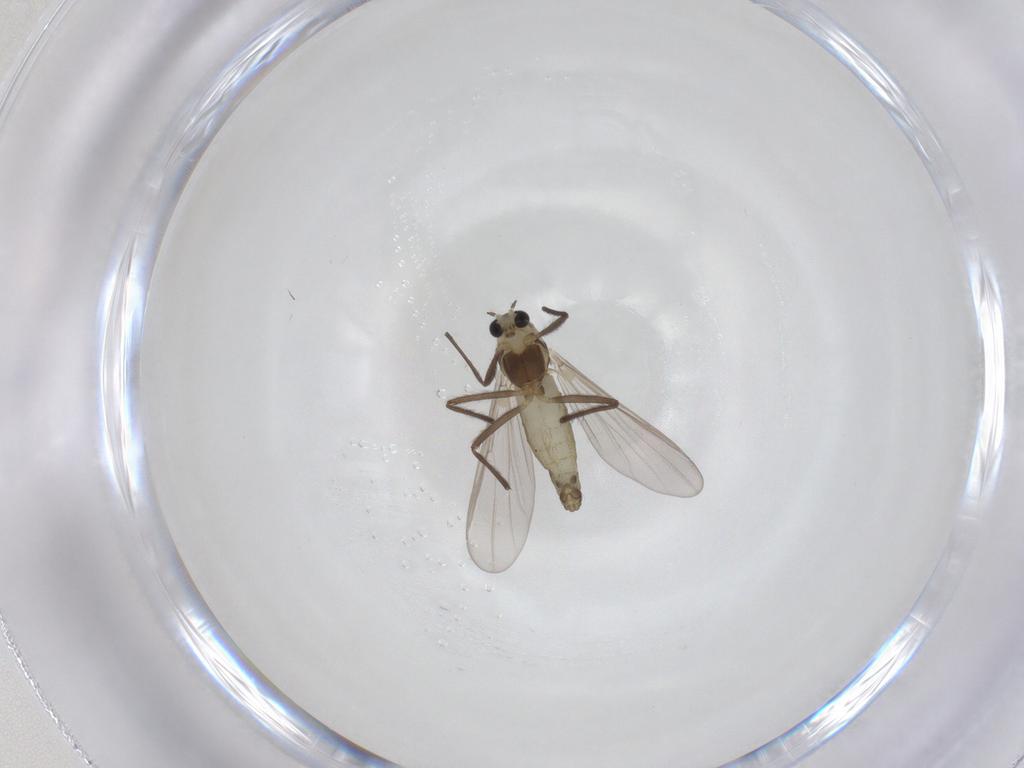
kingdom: Animalia
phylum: Arthropoda
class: Insecta
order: Diptera
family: Chironomidae
